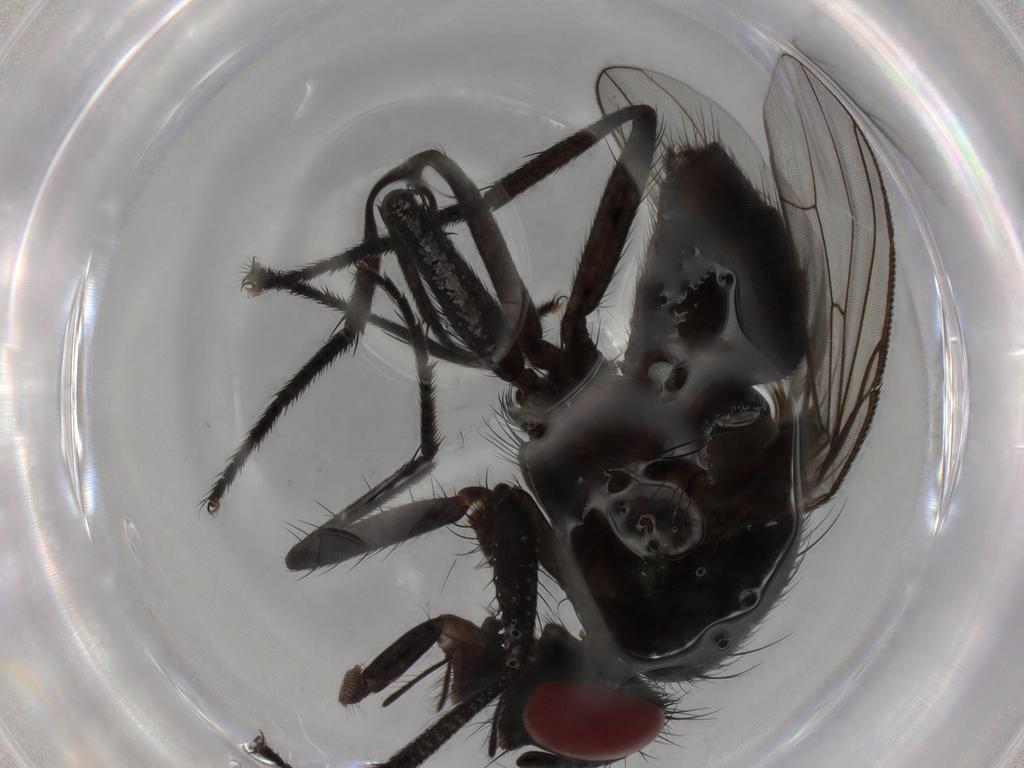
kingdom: Animalia
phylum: Arthropoda
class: Insecta
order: Diptera
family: Muscidae
